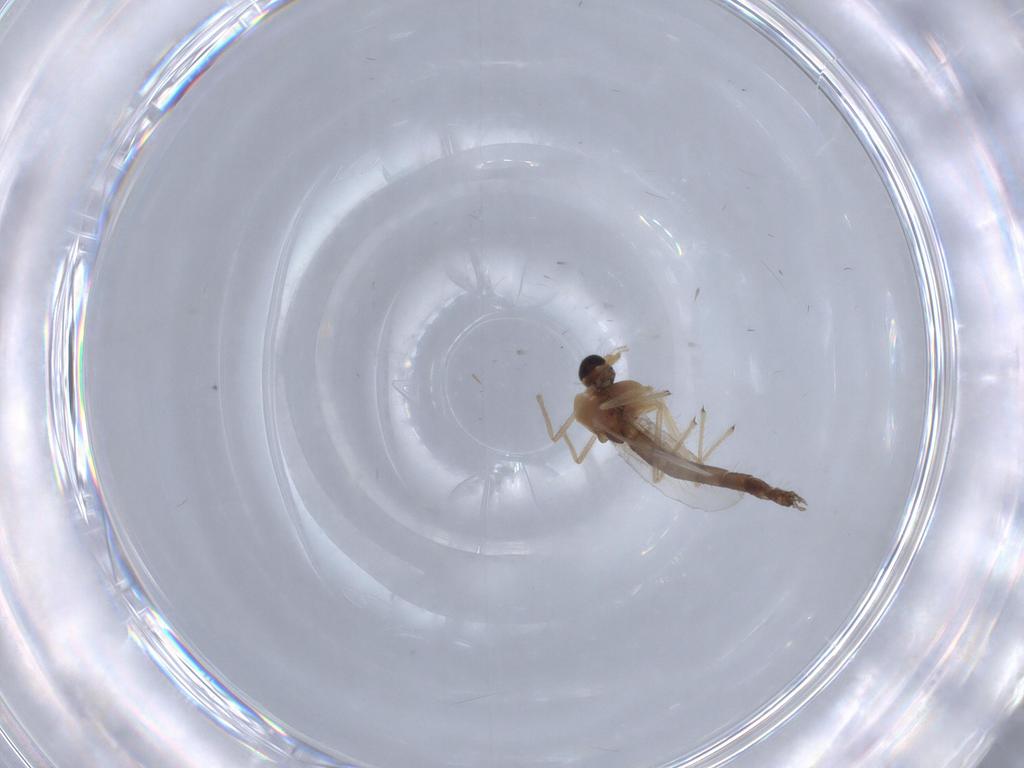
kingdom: Animalia
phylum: Arthropoda
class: Insecta
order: Diptera
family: Chironomidae
